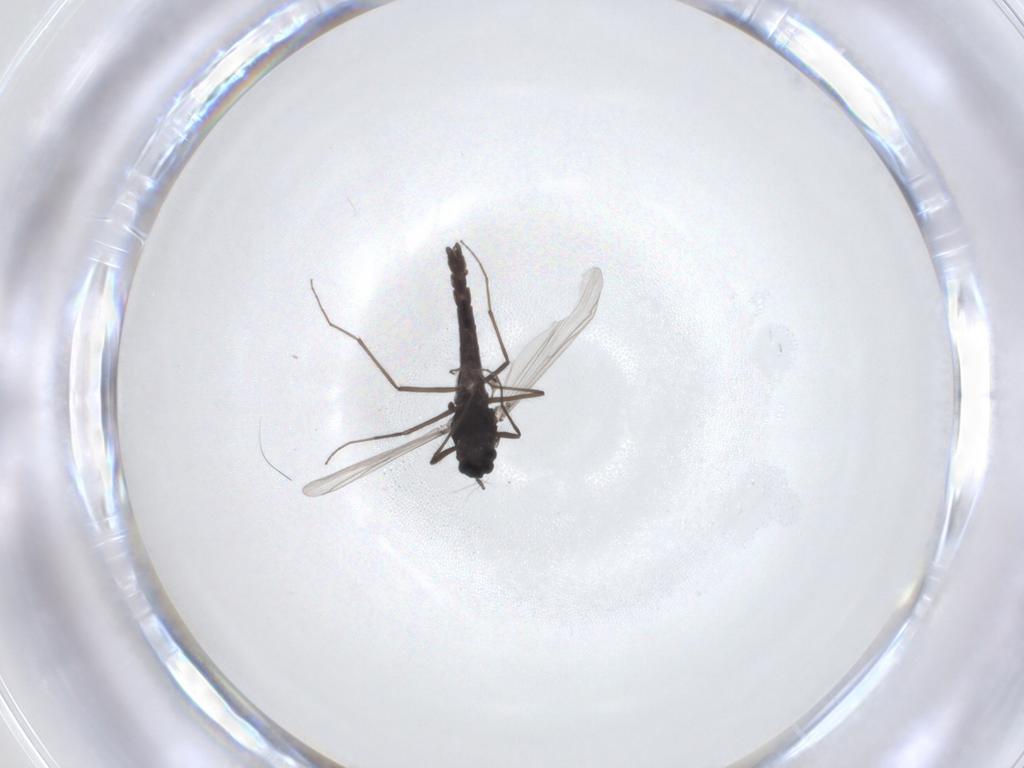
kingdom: Animalia
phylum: Arthropoda
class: Insecta
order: Diptera
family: Chironomidae
